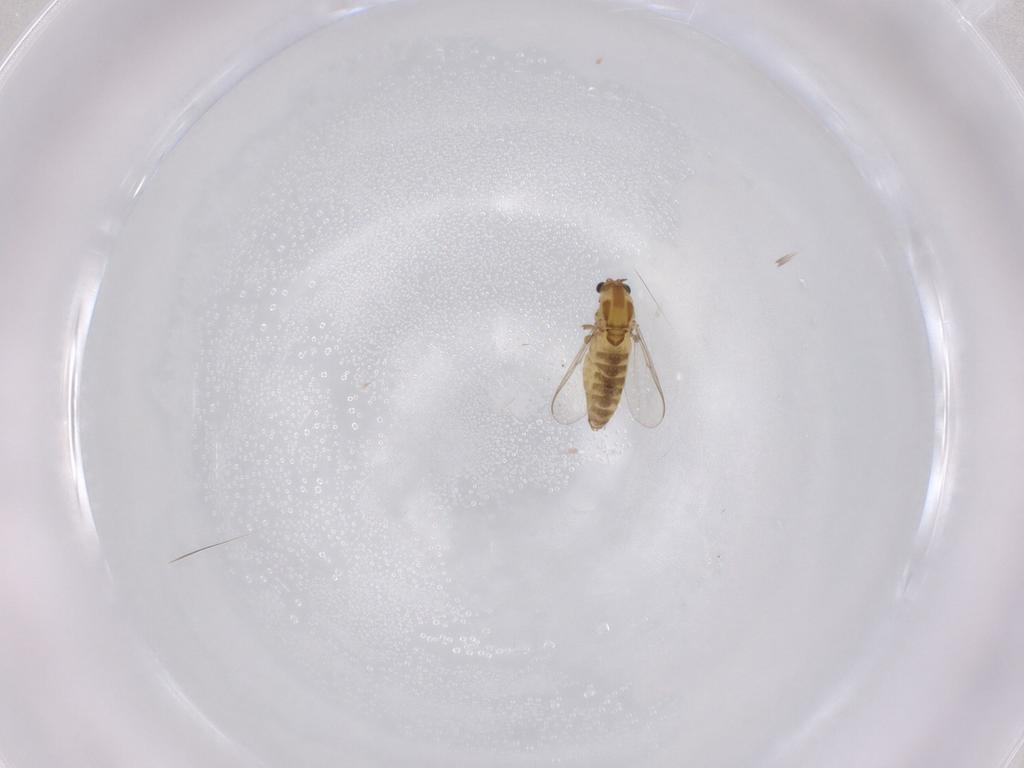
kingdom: Animalia
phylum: Arthropoda
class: Insecta
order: Diptera
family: Chironomidae
